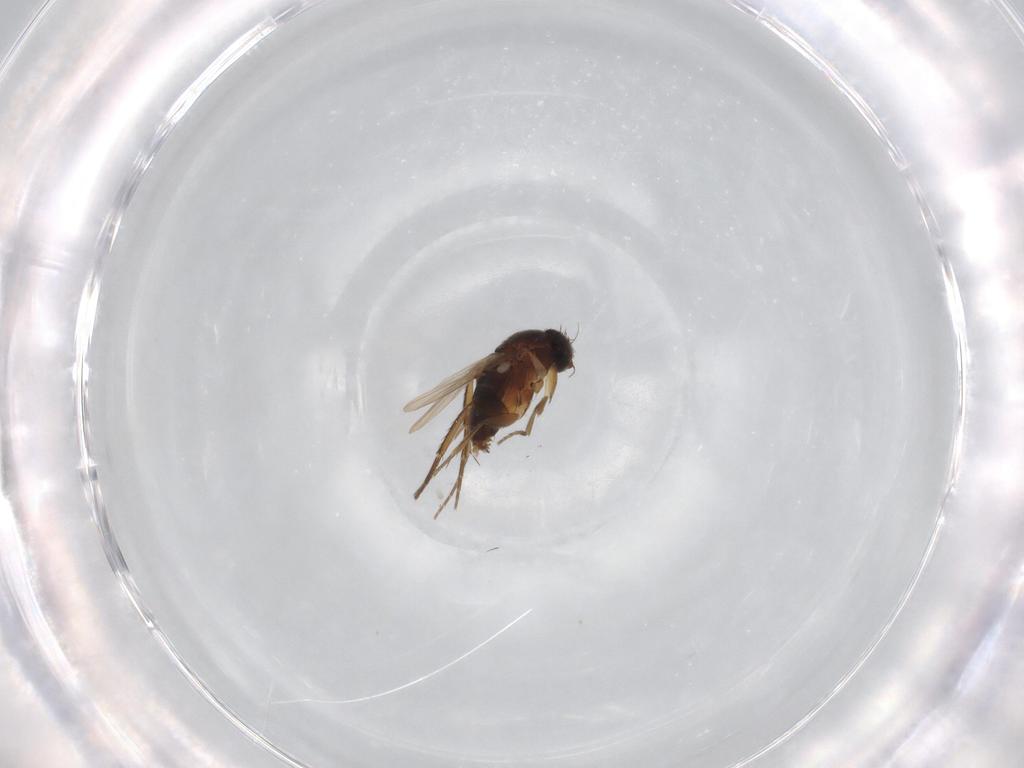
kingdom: Animalia
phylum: Arthropoda
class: Insecta
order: Diptera
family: Phoridae
